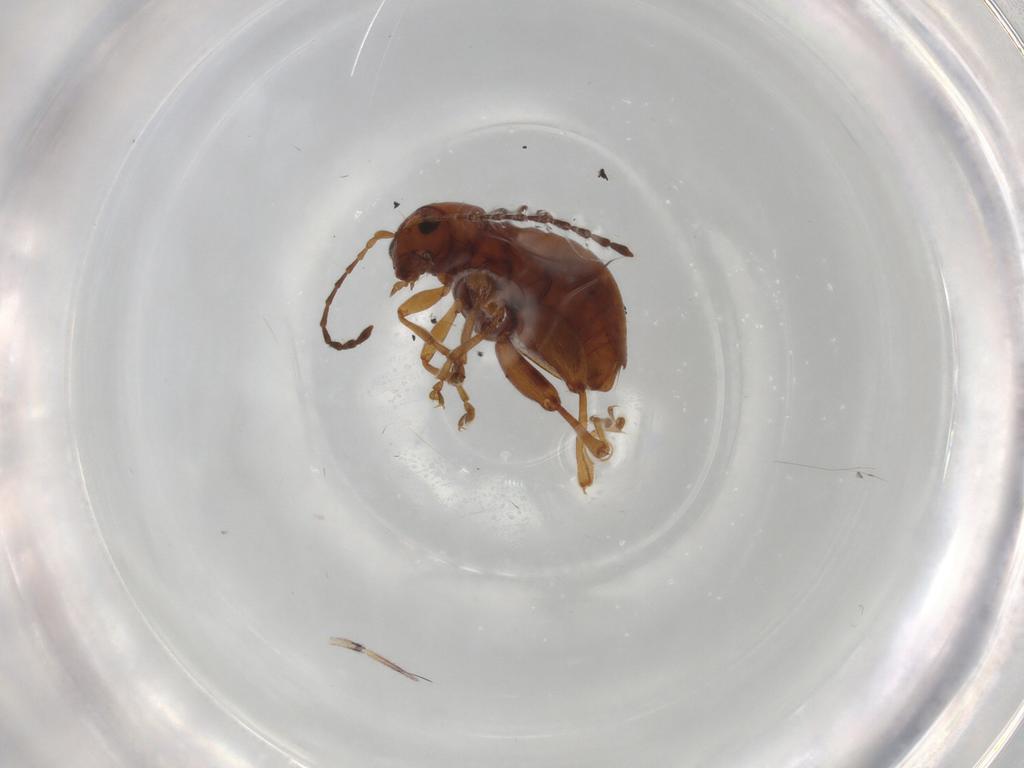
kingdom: Animalia
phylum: Arthropoda
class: Insecta
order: Coleoptera
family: Chrysomelidae
